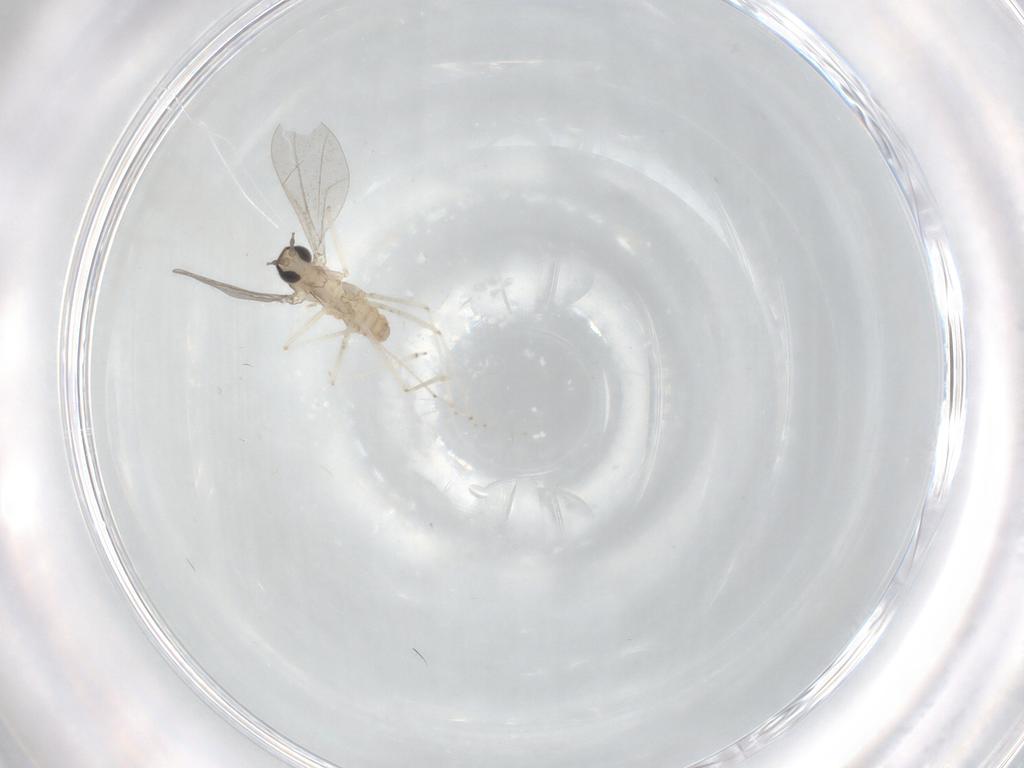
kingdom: Animalia
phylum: Arthropoda
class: Insecta
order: Diptera
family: Cecidomyiidae
